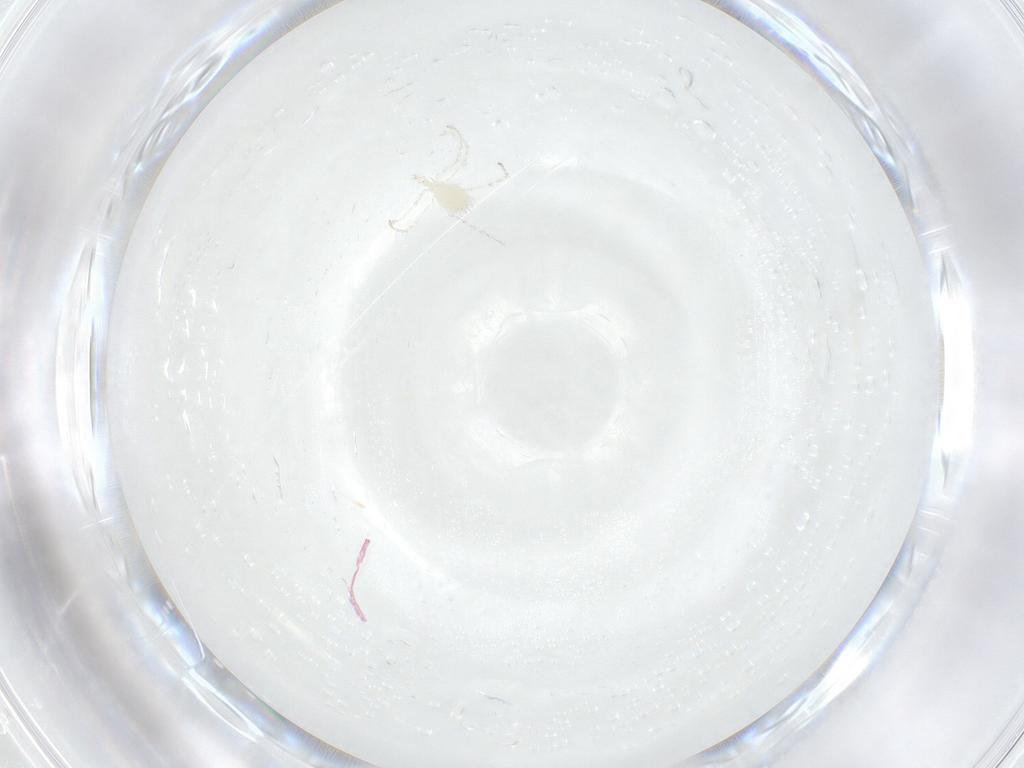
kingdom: Animalia
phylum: Arthropoda
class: Insecta
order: Diptera
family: Cecidomyiidae
